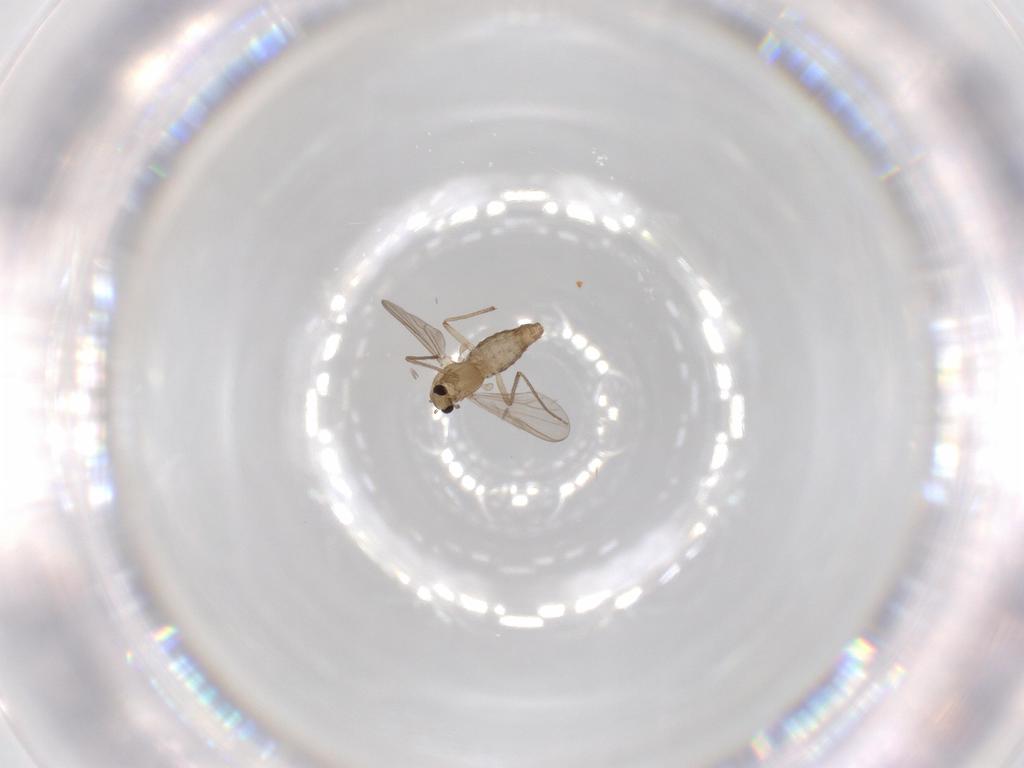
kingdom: Animalia
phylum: Arthropoda
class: Insecta
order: Diptera
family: Chironomidae
